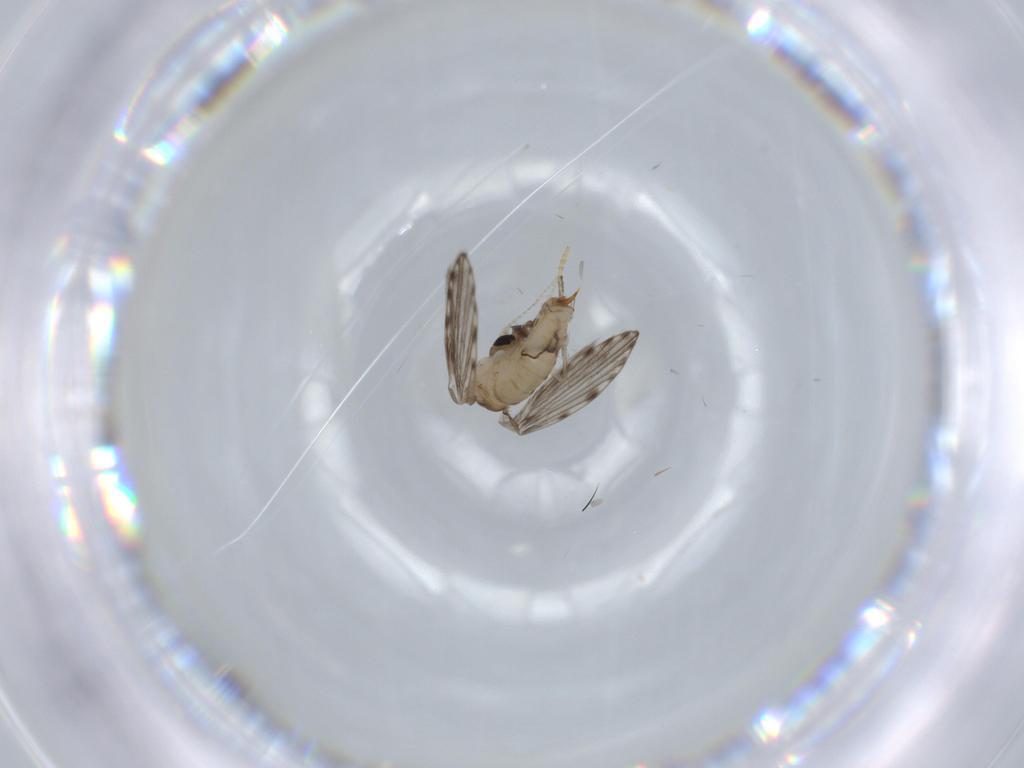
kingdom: Animalia
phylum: Arthropoda
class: Insecta
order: Diptera
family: Psychodidae
